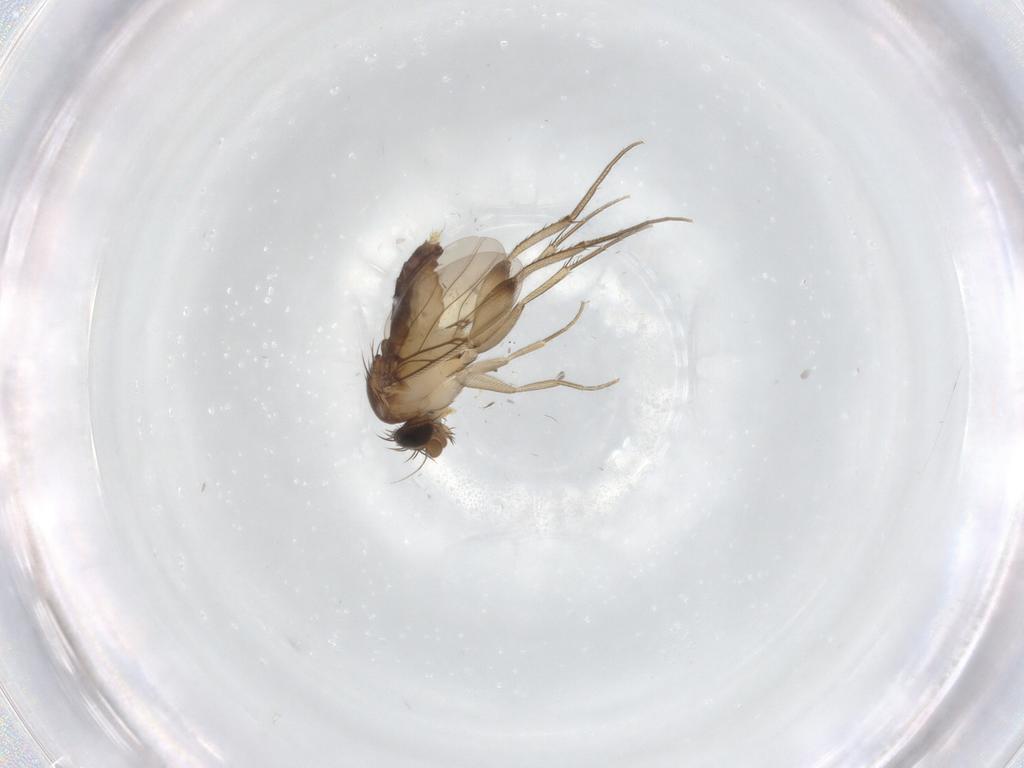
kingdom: Animalia
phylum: Arthropoda
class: Insecta
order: Diptera
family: Phoridae
